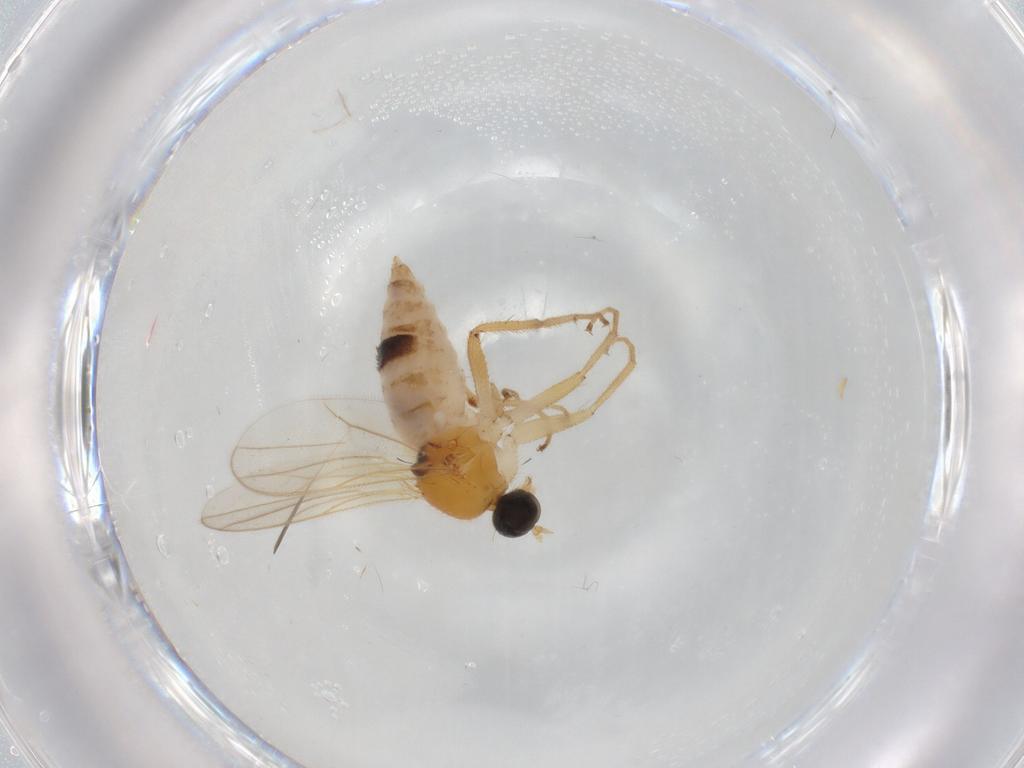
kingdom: Animalia
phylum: Arthropoda
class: Insecta
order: Diptera
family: Hybotidae
